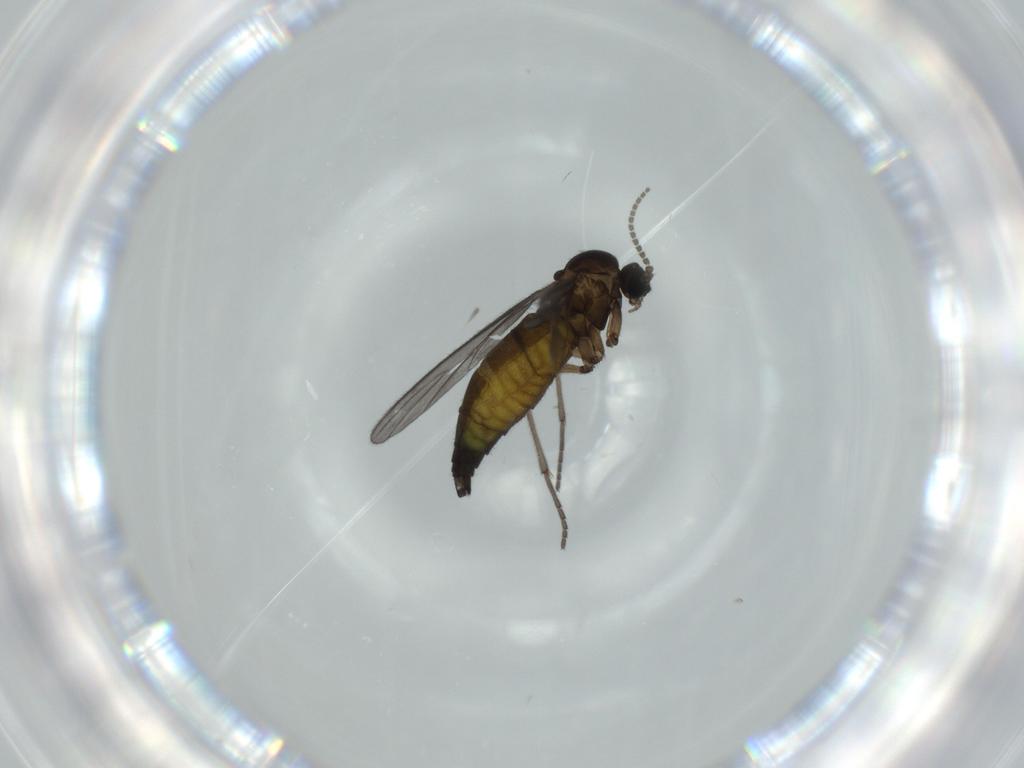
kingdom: Animalia
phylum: Arthropoda
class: Insecta
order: Diptera
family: Sciaridae
